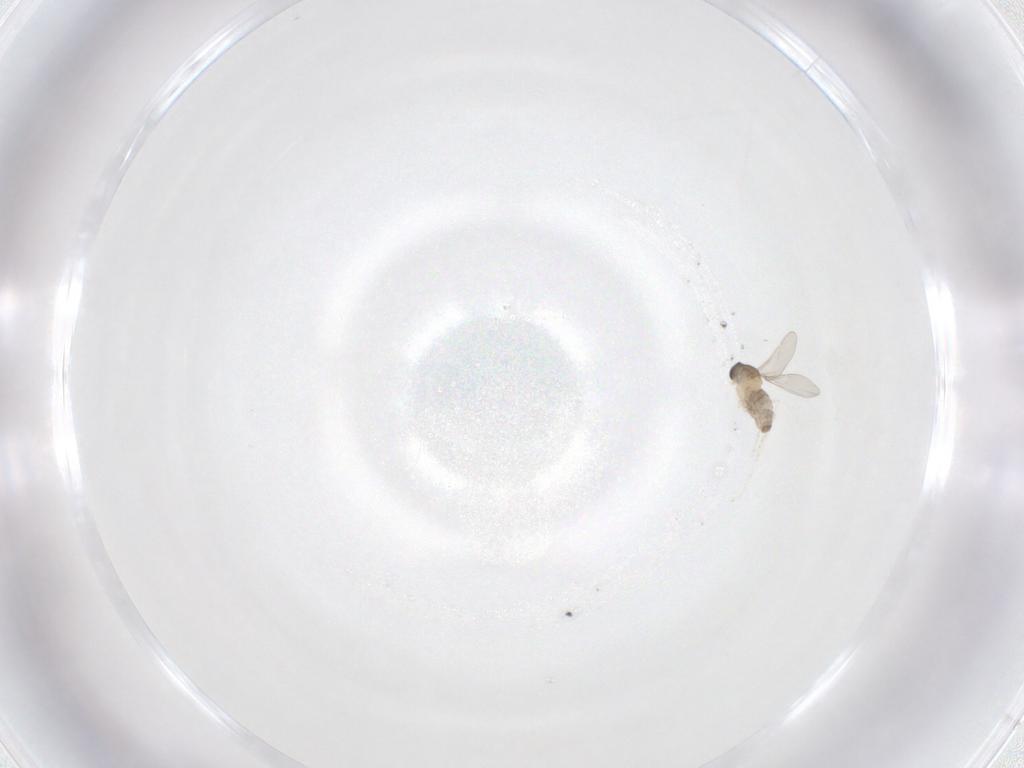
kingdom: Animalia
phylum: Arthropoda
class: Insecta
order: Diptera
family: Cecidomyiidae
